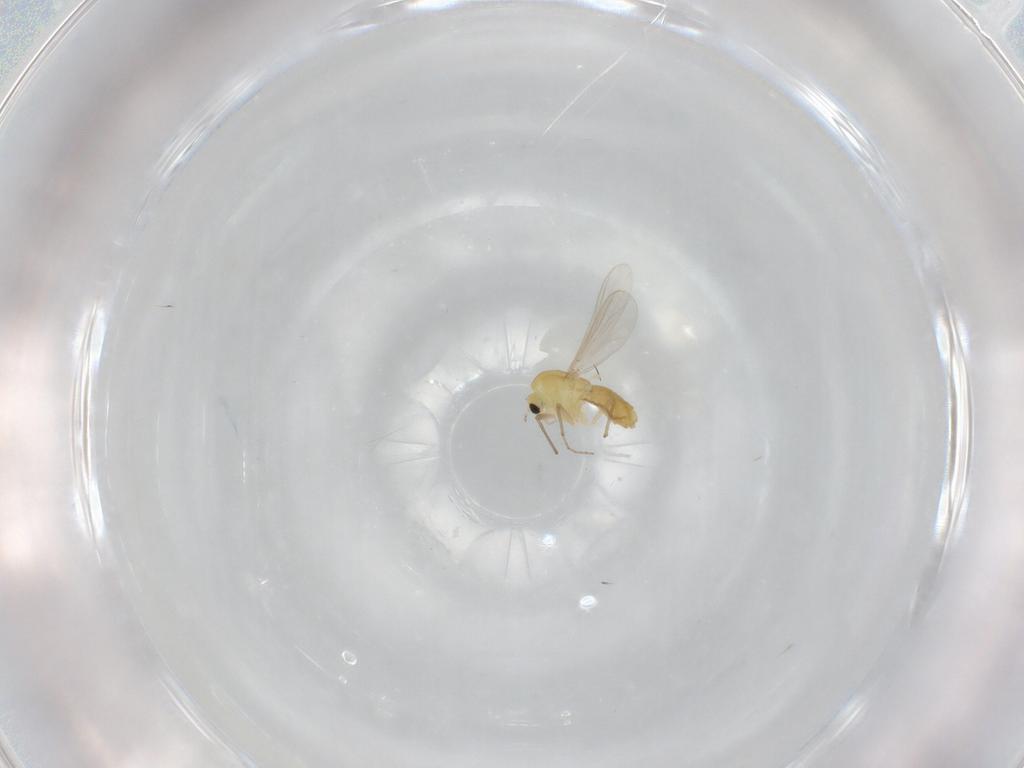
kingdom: Animalia
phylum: Arthropoda
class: Insecta
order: Diptera
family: Chironomidae
